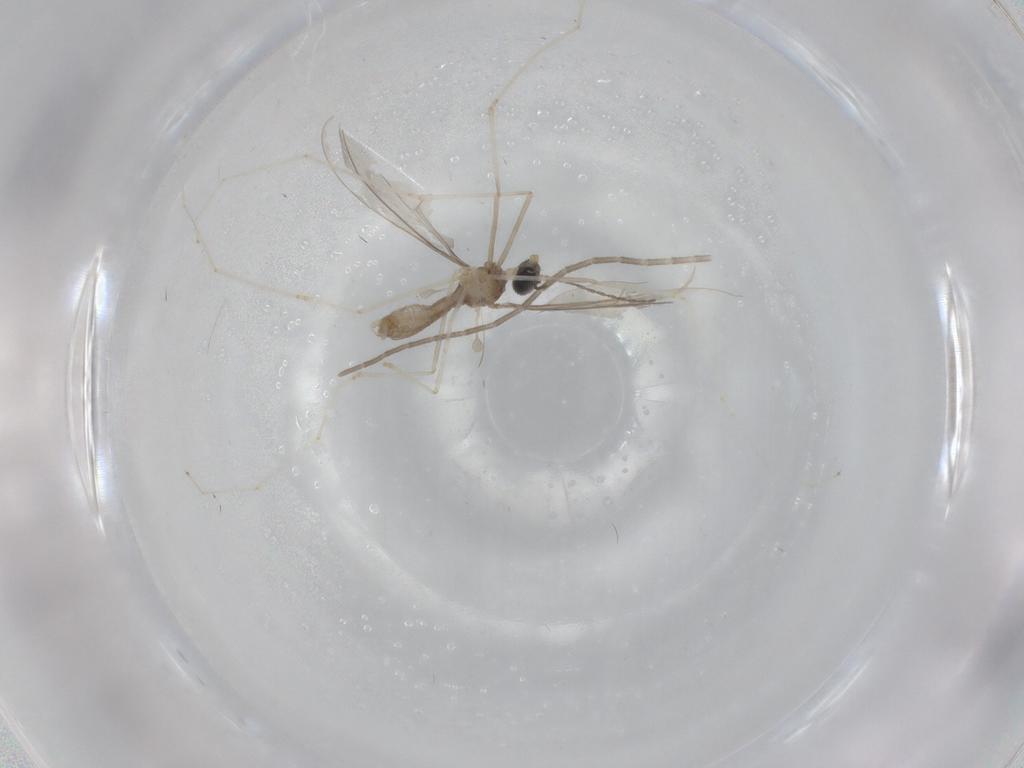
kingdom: Animalia
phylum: Arthropoda
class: Insecta
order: Diptera
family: Cecidomyiidae
